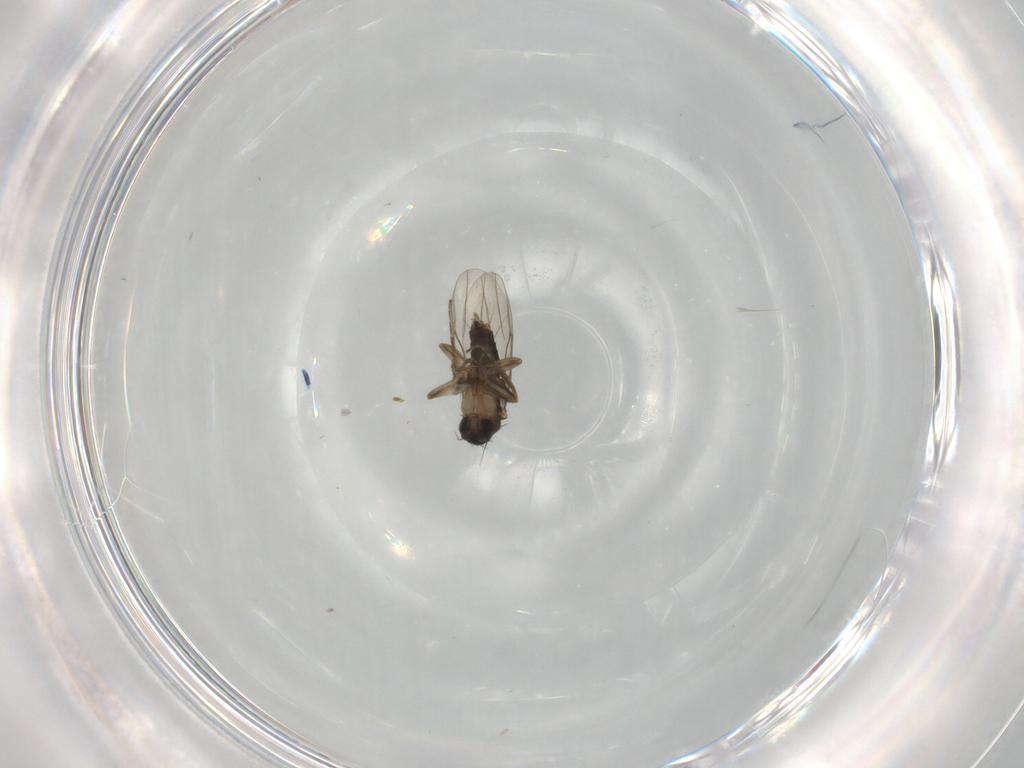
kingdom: Animalia
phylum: Arthropoda
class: Insecta
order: Diptera
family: Phoridae
